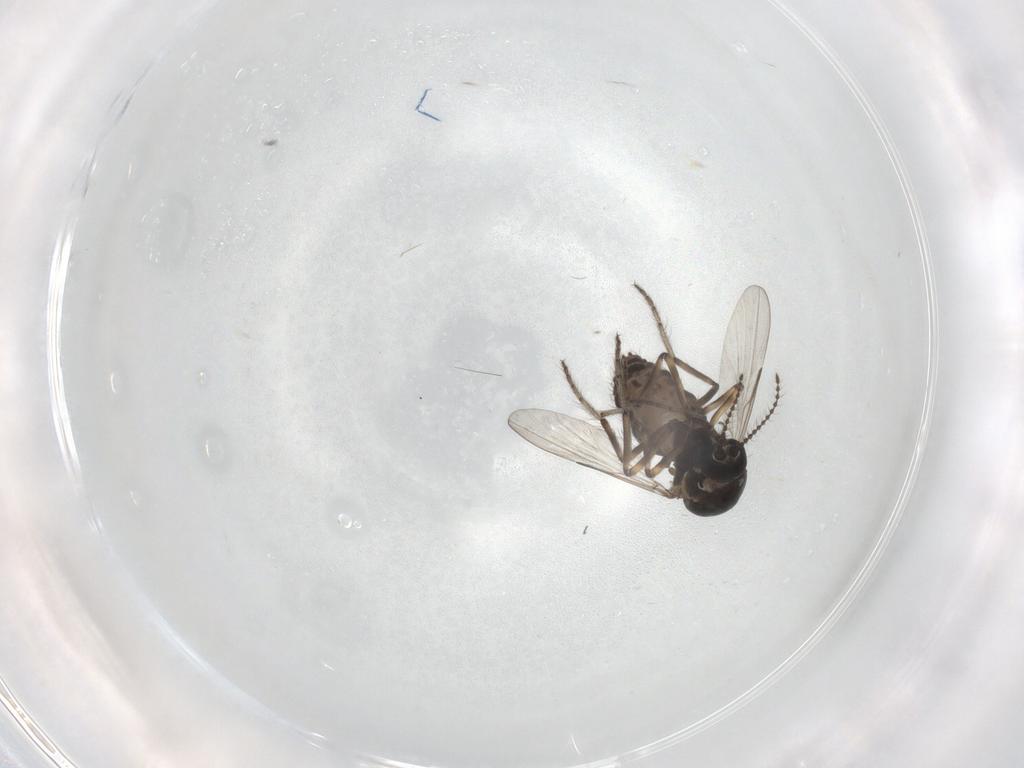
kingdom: Animalia
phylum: Arthropoda
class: Insecta
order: Diptera
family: Ceratopogonidae
